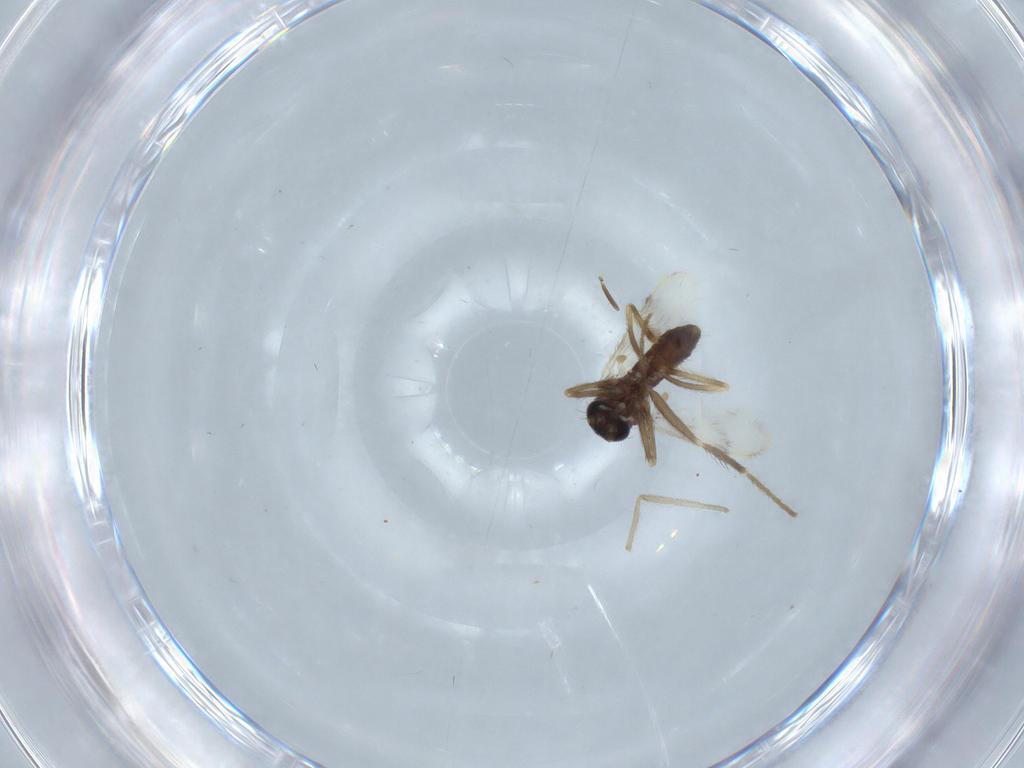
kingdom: Animalia
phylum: Arthropoda
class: Insecta
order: Diptera
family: Corethrellidae
